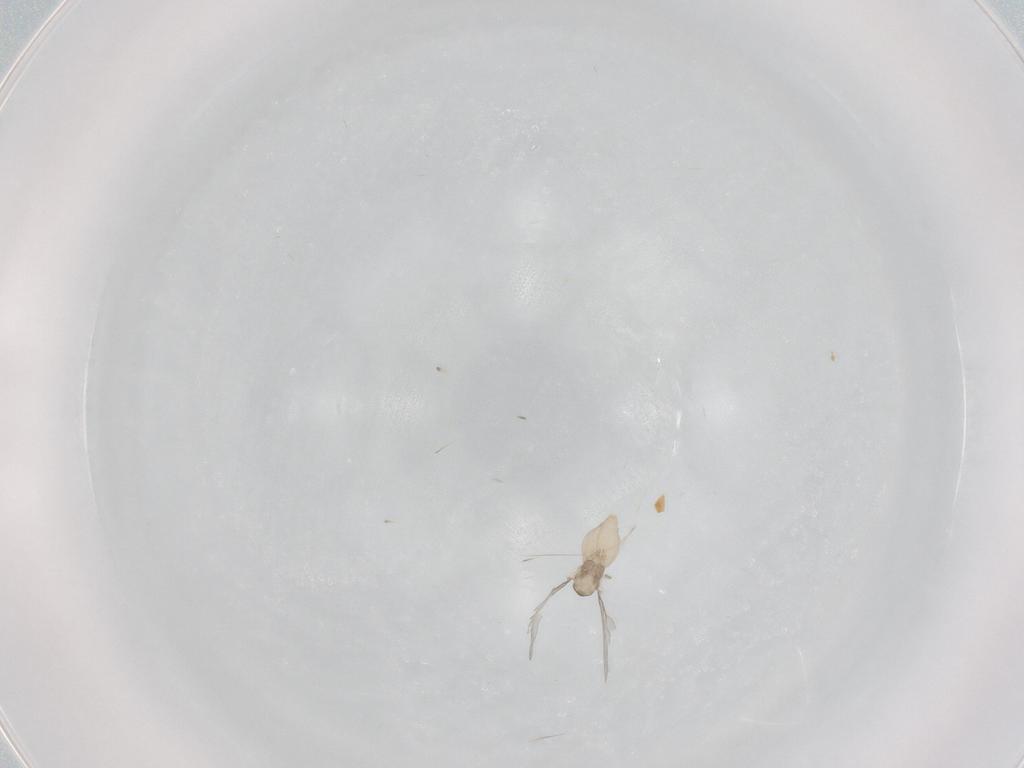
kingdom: Animalia
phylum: Arthropoda
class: Insecta
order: Diptera
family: Cecidomyiidae
